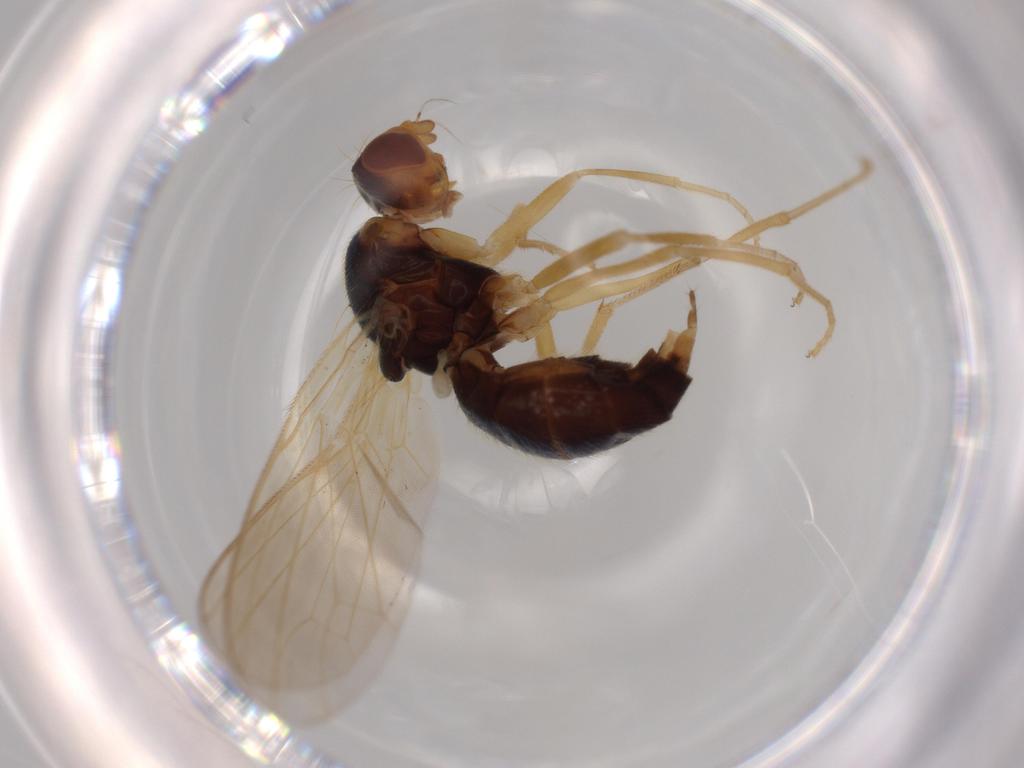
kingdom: Animalia
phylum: Arthropoda
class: Insecta
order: Diptera
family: Psilidae
